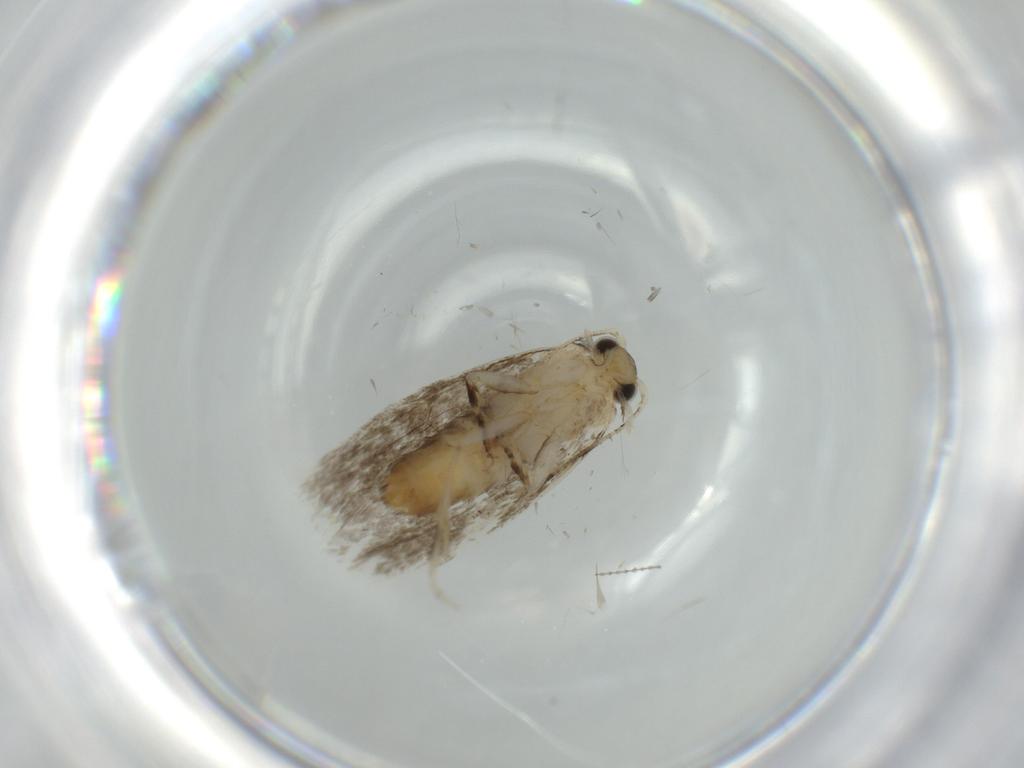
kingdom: Animalia
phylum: Arthropoda
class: Insecta
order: Lepidoptera
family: Tineidae
